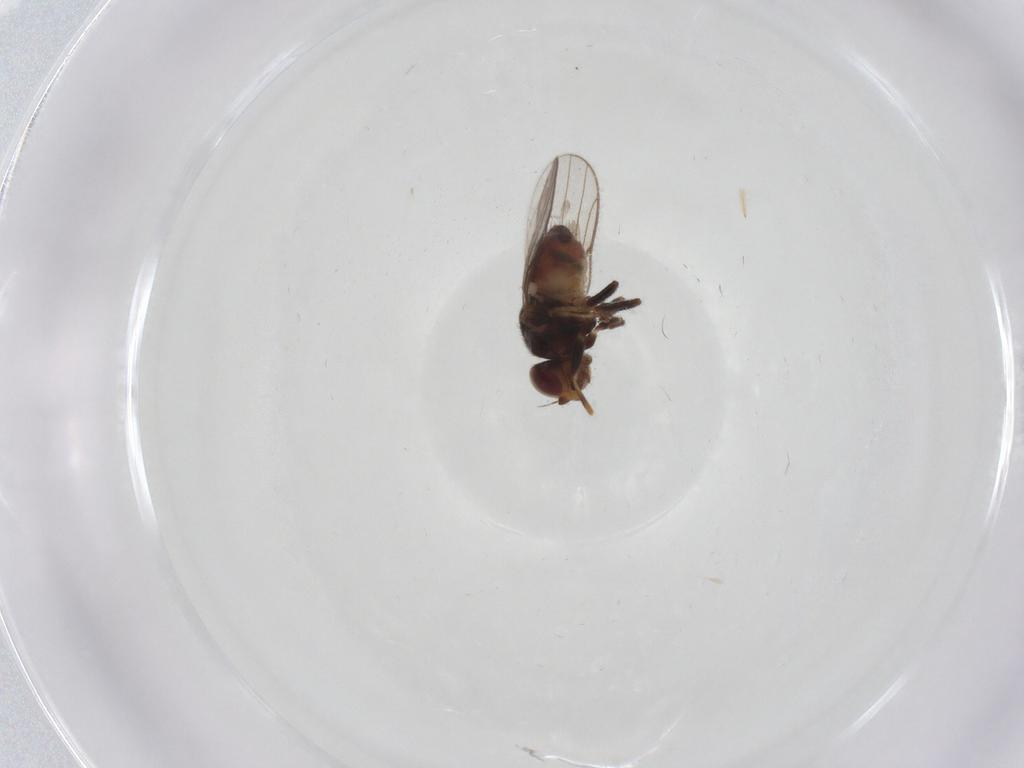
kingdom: Animalia
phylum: Arthropoda
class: Insecta
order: Diptera
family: Chloropidae
